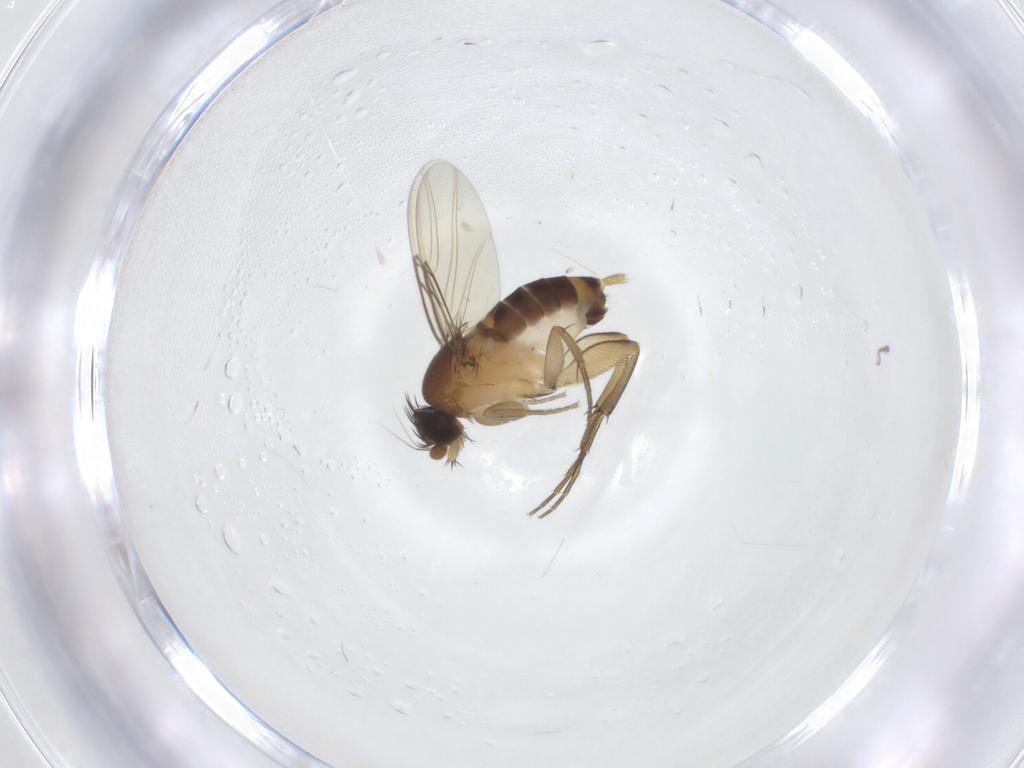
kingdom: Animalia
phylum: Arthropoda
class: Insecta
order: Diptera
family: Phoridae
